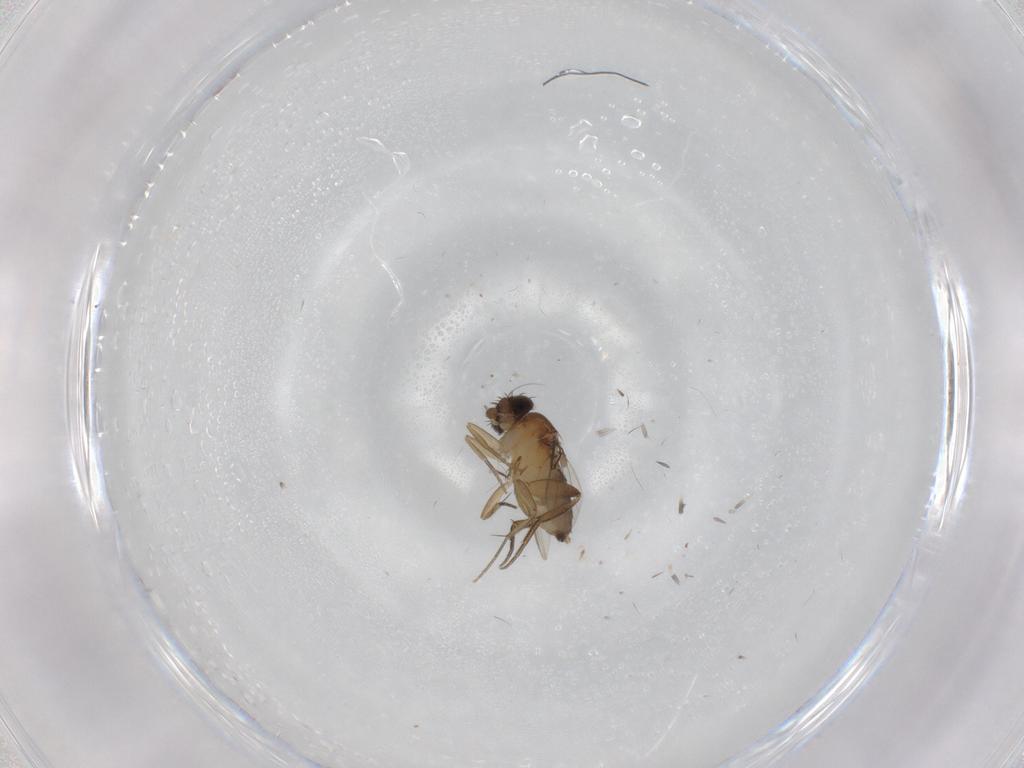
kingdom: Animalia
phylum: Arthropoda
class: Insecta
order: Diptera
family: Phoridae
